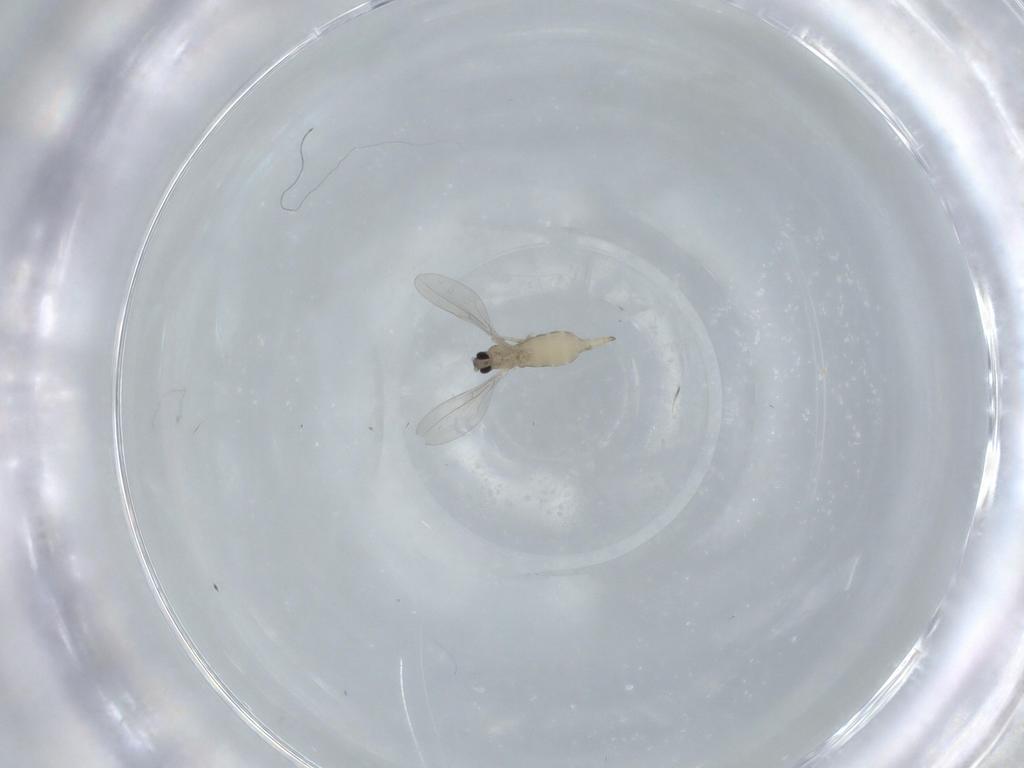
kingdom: Animalia
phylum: Arthropoda
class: Insecta
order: Diptera
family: Cecidomyiidae
